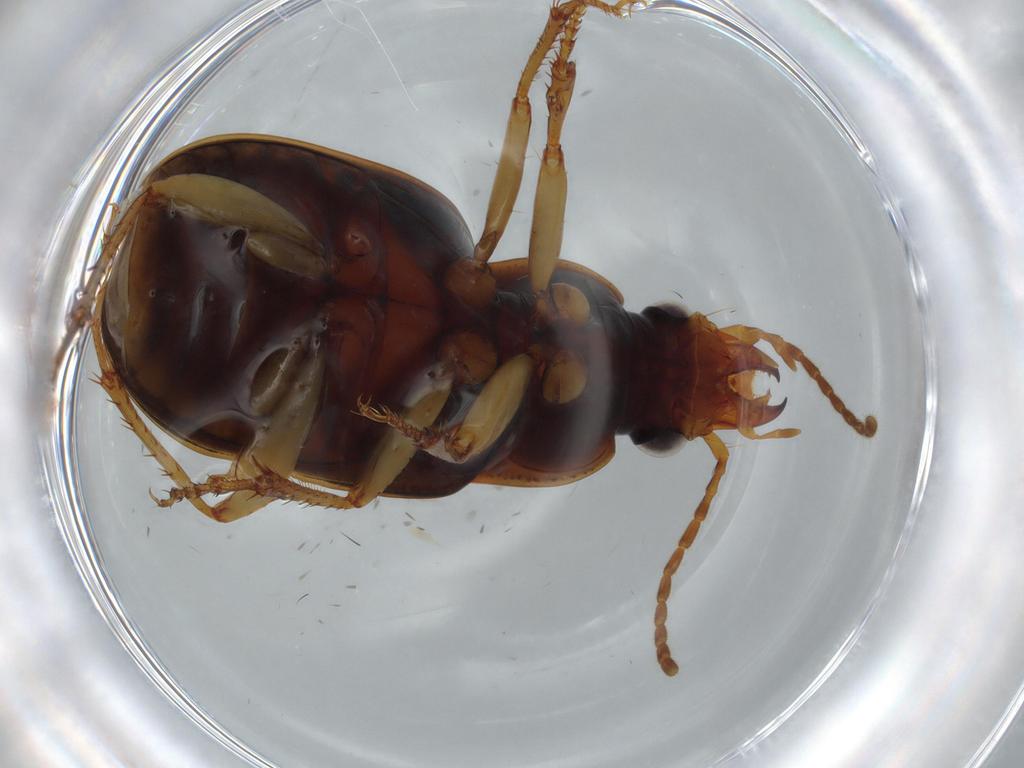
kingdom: Animalia
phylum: Arthropoda
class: Insecta
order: Coleoptera
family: Carabidae
